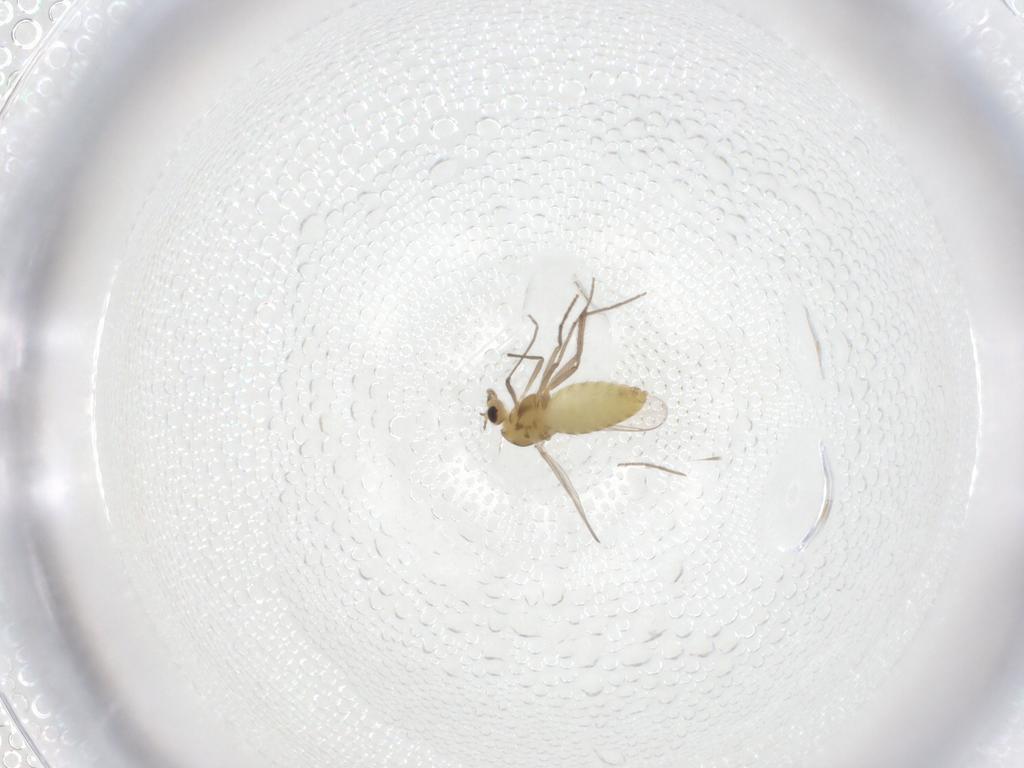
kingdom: Animalia
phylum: Arthropoda
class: Insecta
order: Diptera
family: Chironomidae
